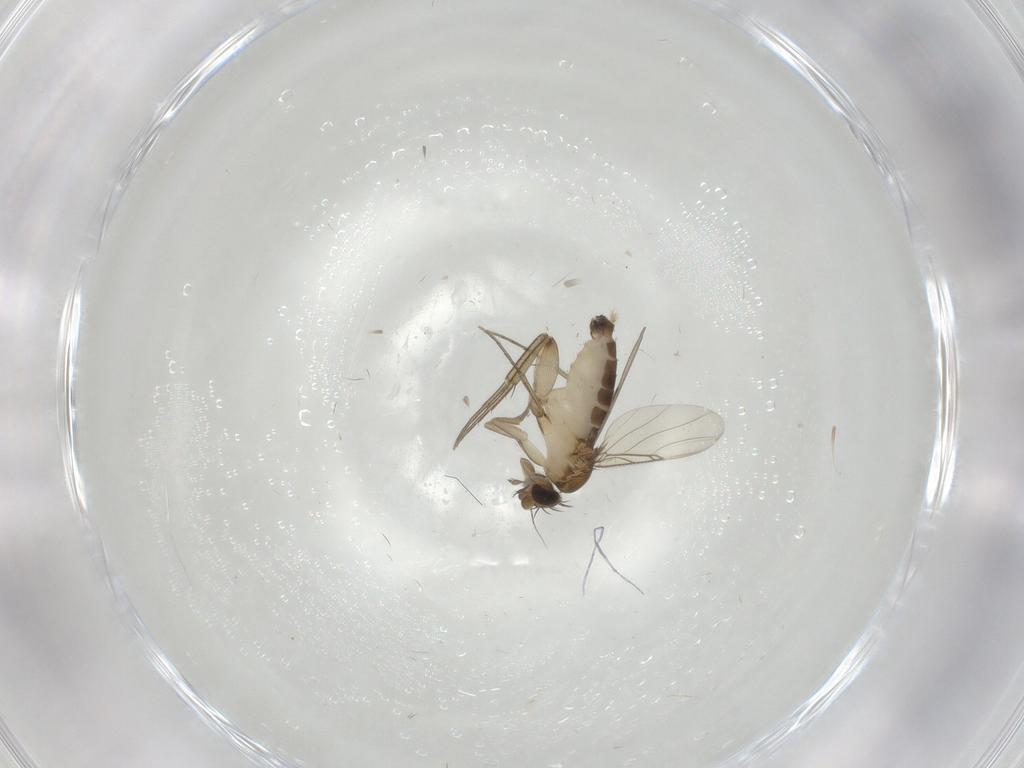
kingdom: Animalia
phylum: Arthropoda
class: Insecta
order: Diptera
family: Phoridae
